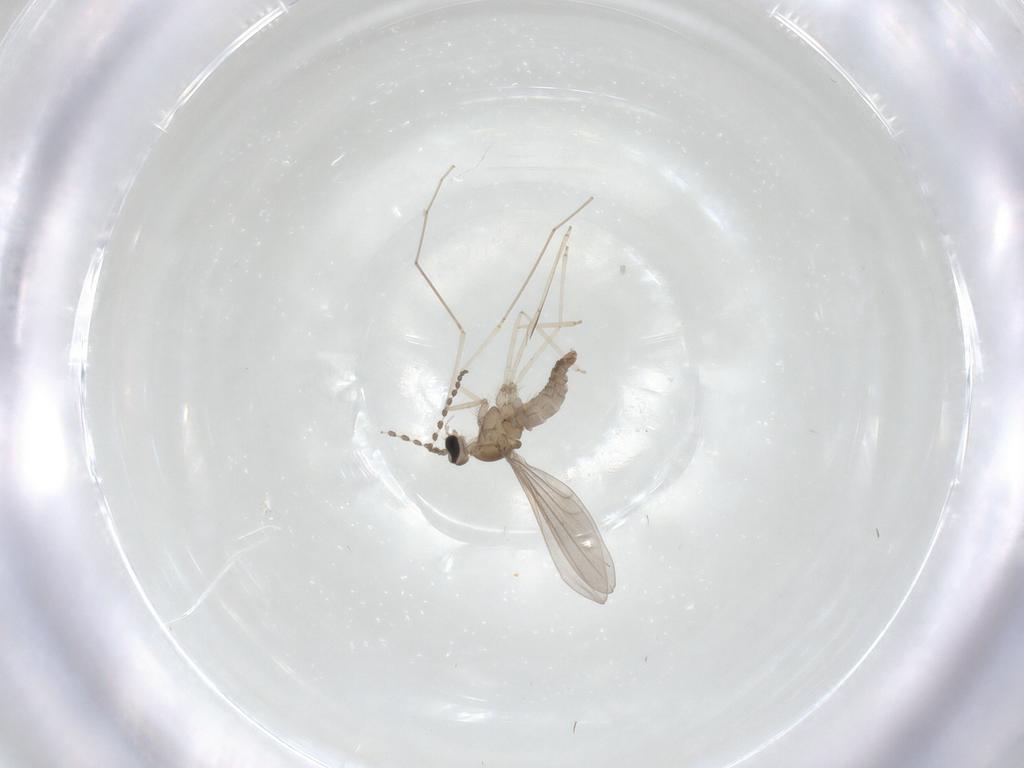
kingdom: Animalia
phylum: Arthropoda
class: Insecta
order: Diptera
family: Cecidomyiidae
